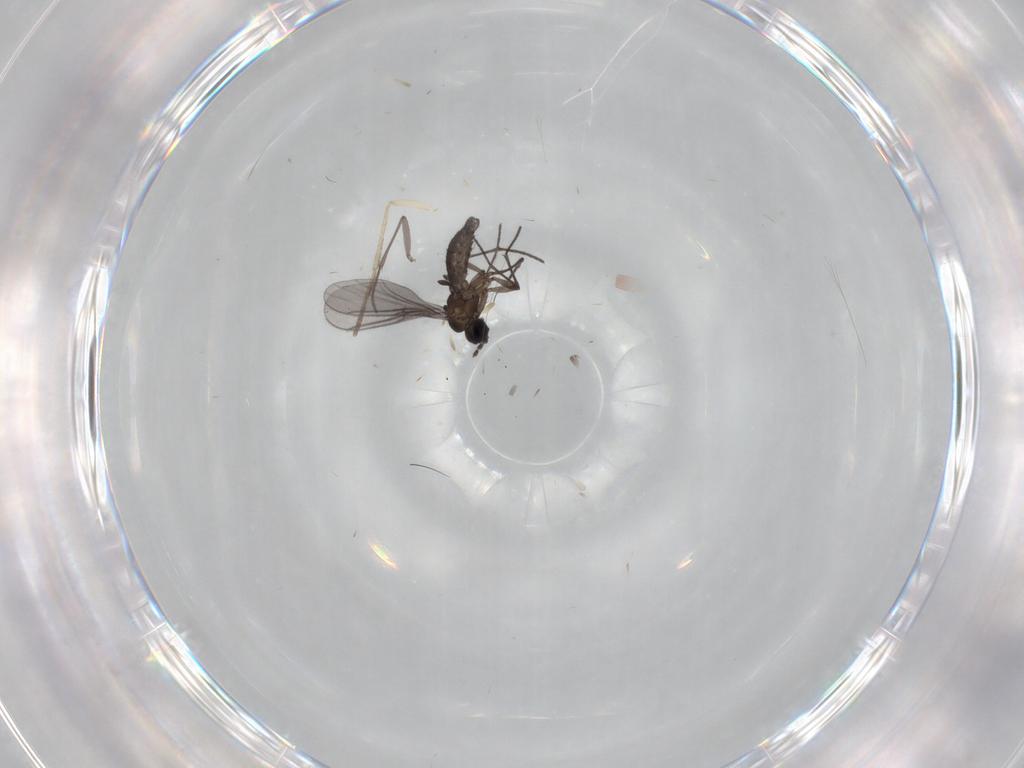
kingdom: Animalia
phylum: Arthropoda
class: Insecta
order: Diptera
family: Psychodidae
